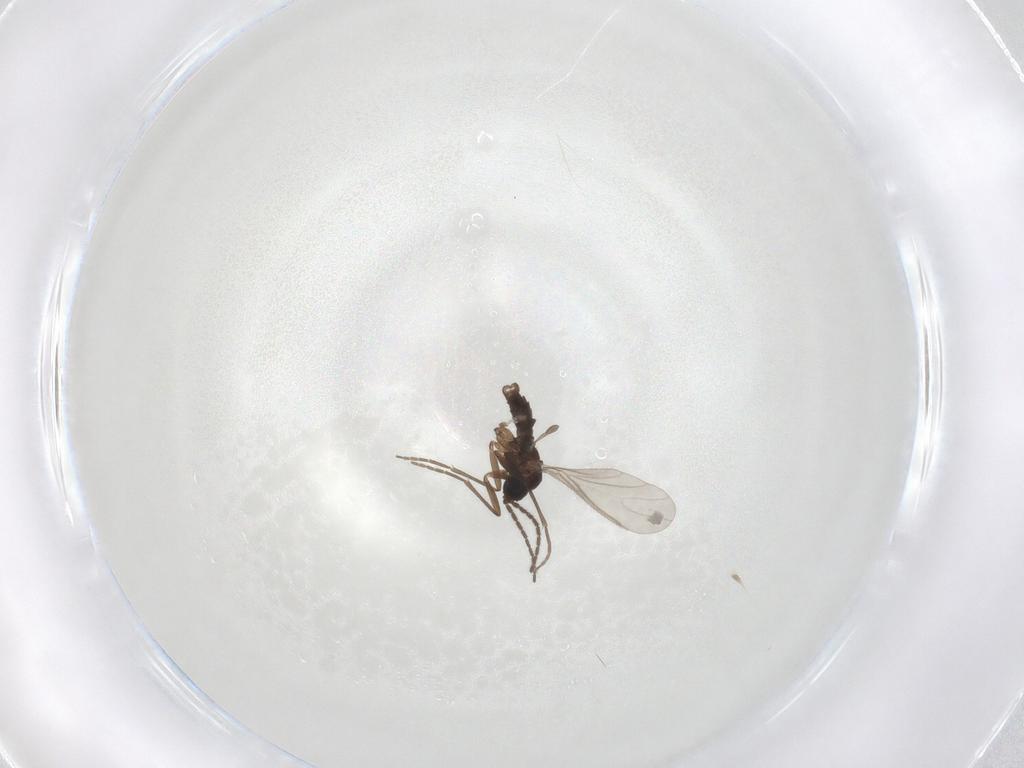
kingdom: Animalia
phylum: Arthropoda
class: Insecta
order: Diptera
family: Sciaridae
